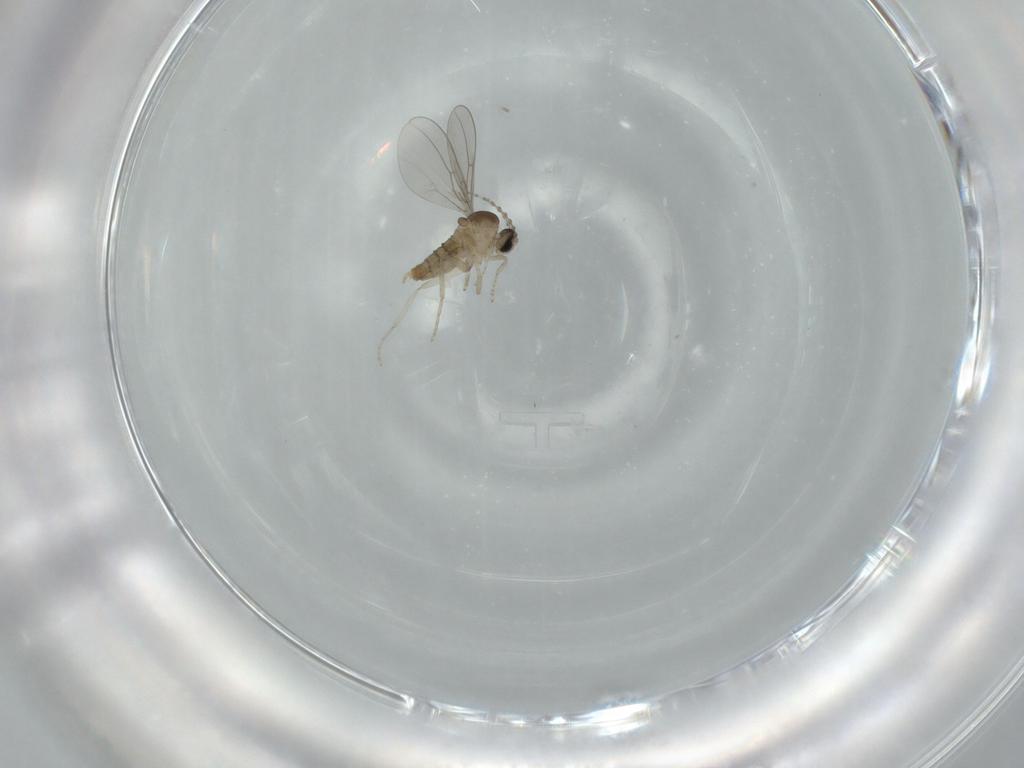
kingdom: Animalia
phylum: Arthropoda
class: Insecta
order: Diptera
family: Cecidomyiidae
